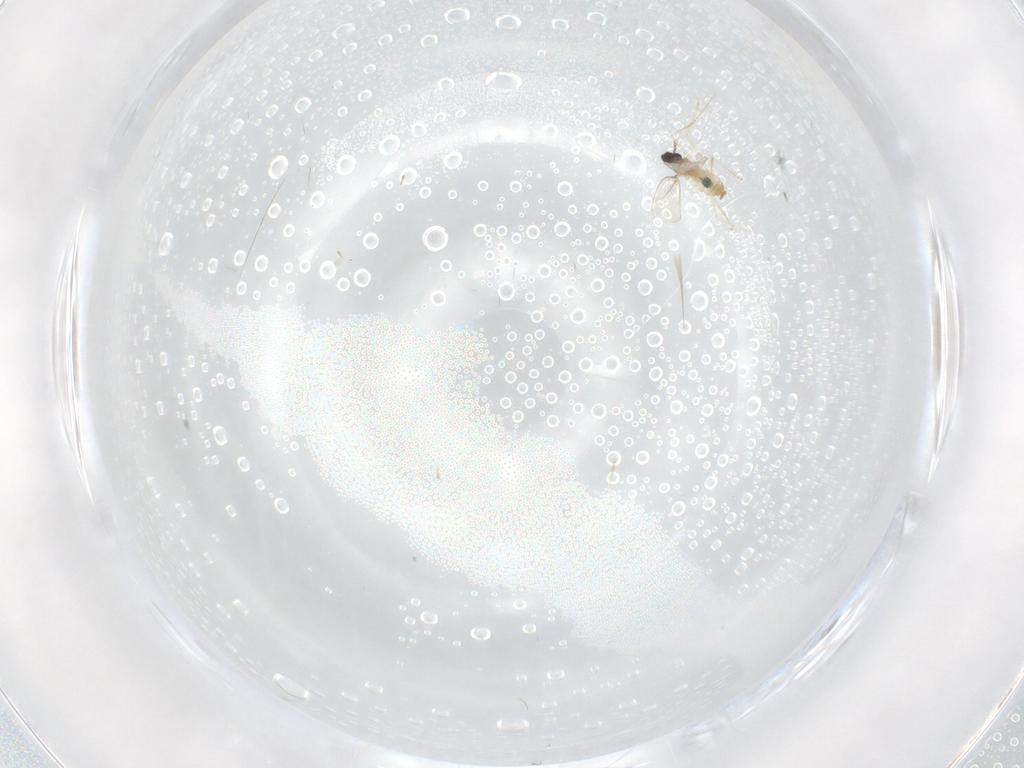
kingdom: Animalia
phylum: Arthropoda
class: Insecta
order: Diptera
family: Cecidomyiidae
